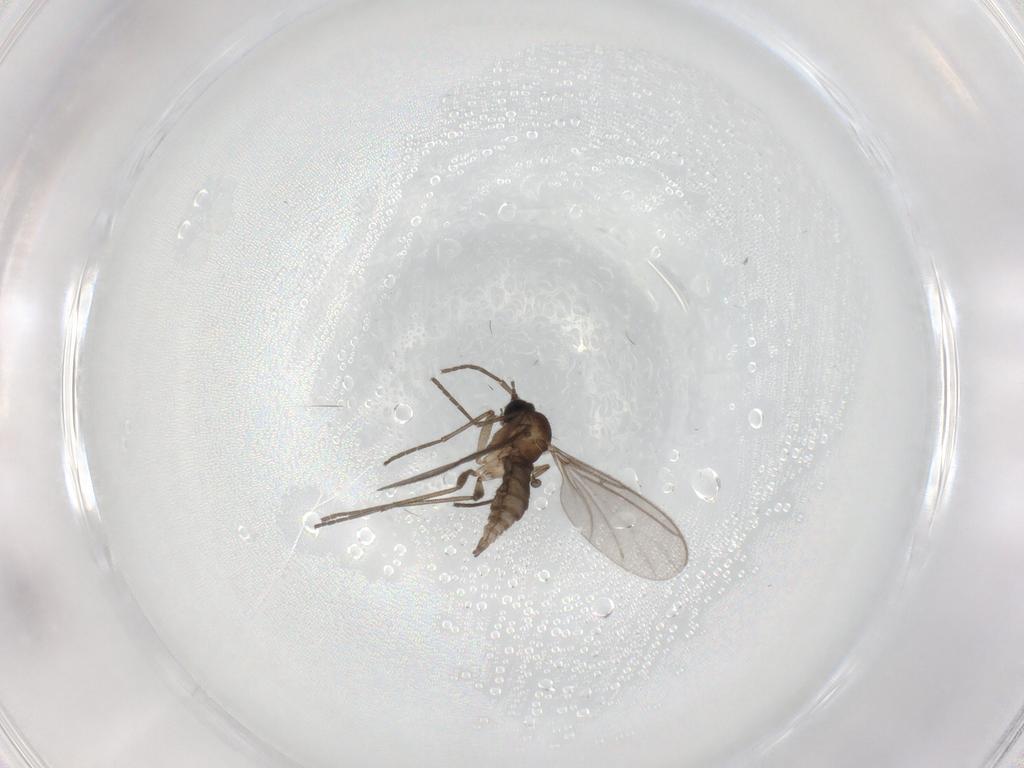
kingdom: Animalia
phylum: Arthropoda
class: Insecta
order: Diptera
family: Sciaridae
